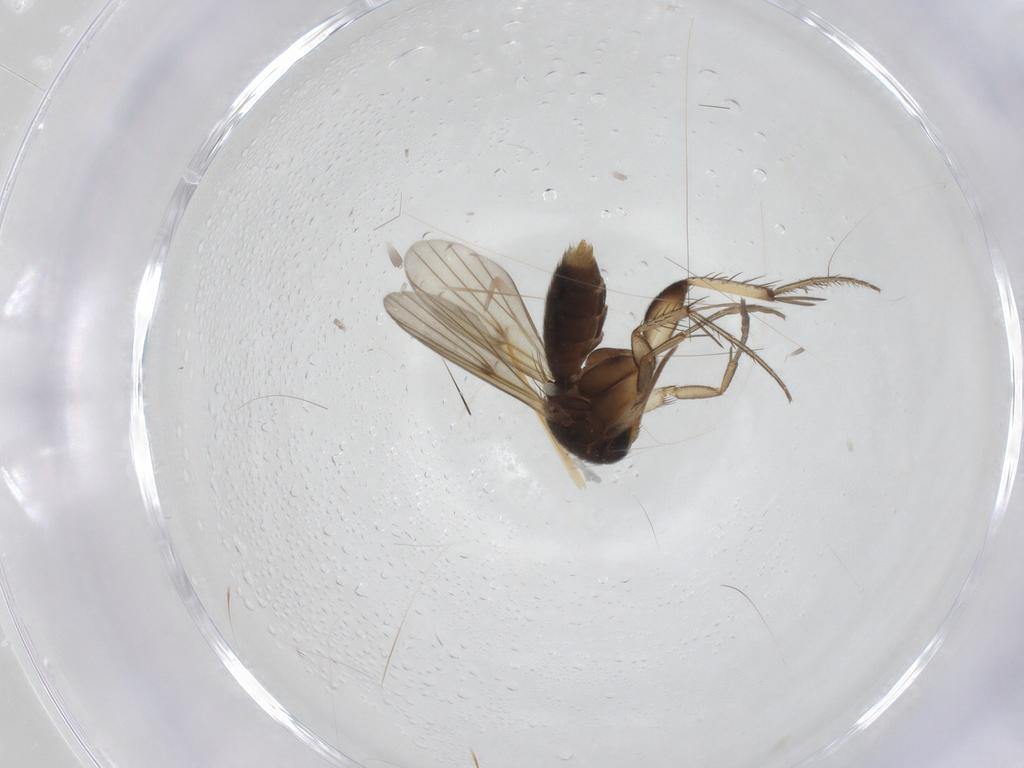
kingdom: Animalia
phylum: Arthropoda
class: Insecta
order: Diptera
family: Mycetophilidae
